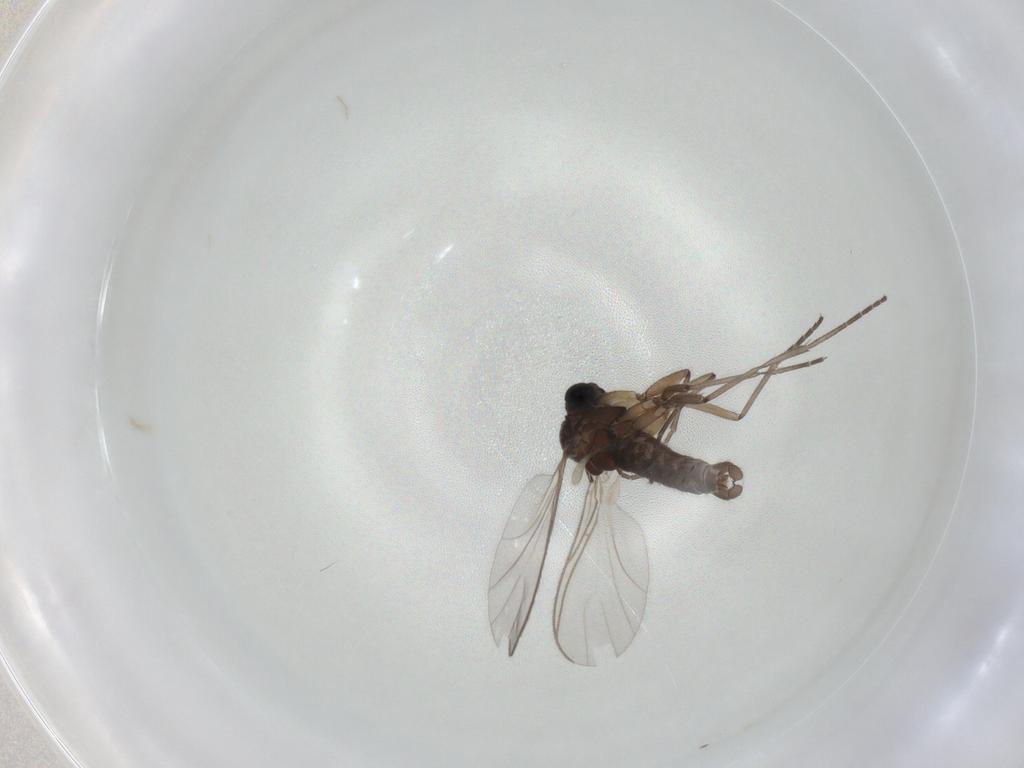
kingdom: Animalia
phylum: Arthropoda
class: Insecta
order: Diptera
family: Sciaridae
